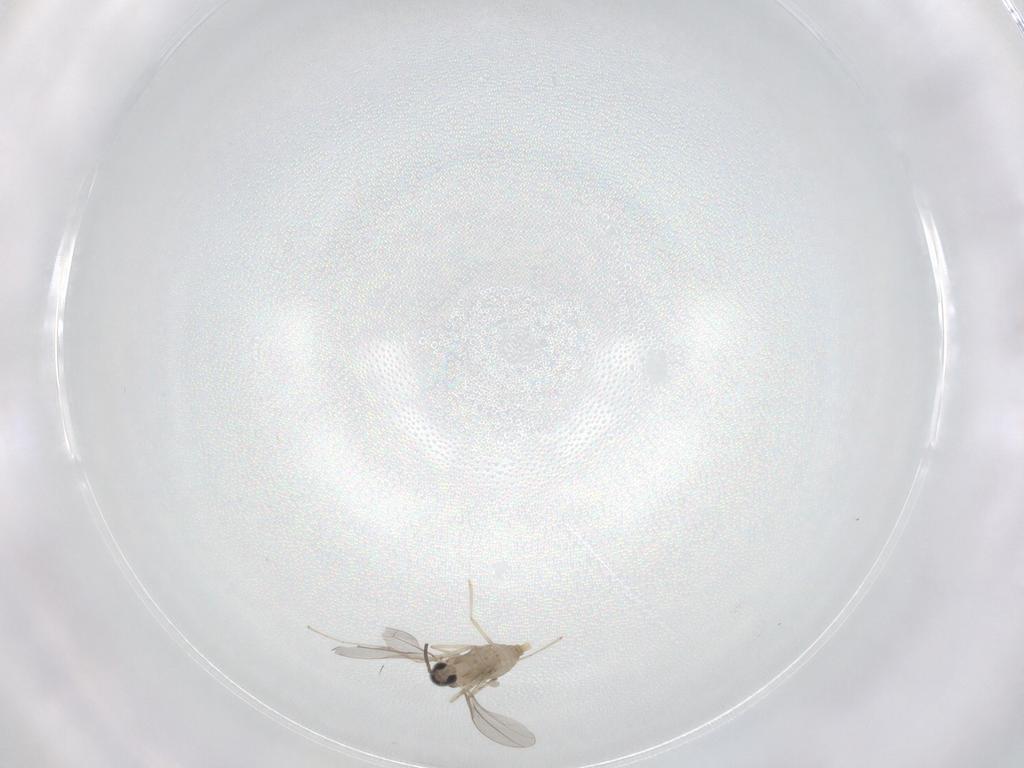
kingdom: Animalia
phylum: Arthropoda
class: Insecta
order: Diptera
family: Dolichopodidae
